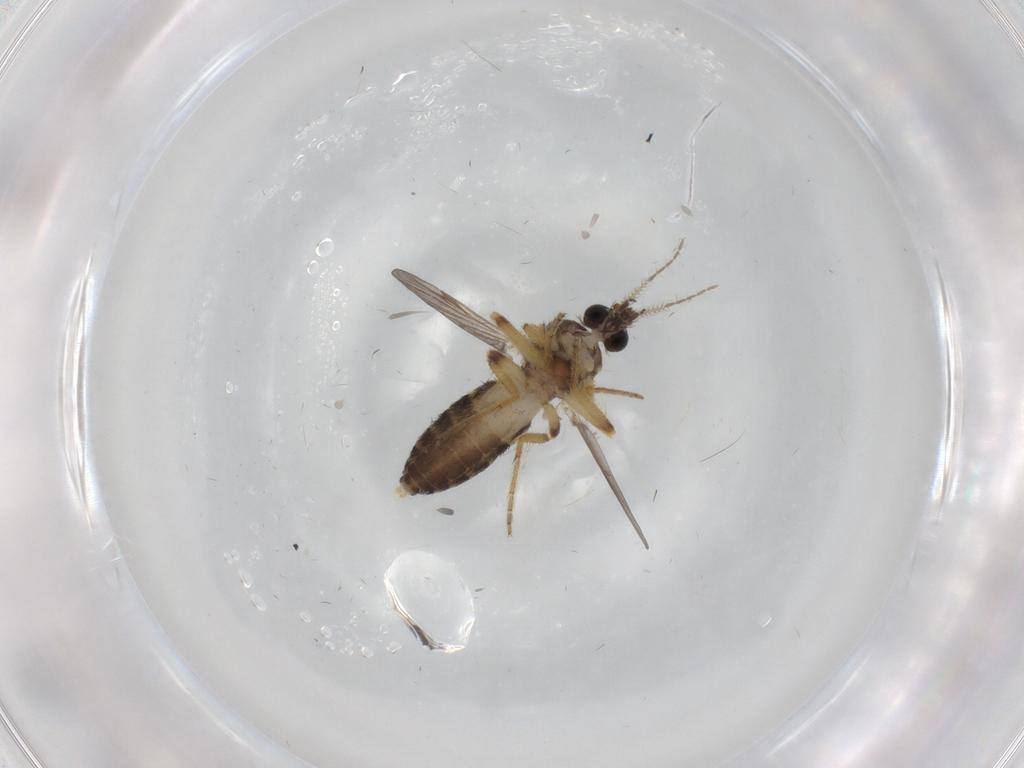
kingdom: Animalia
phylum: Arthropoda
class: Insecta
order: Diptera
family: Ceratopogonidae
